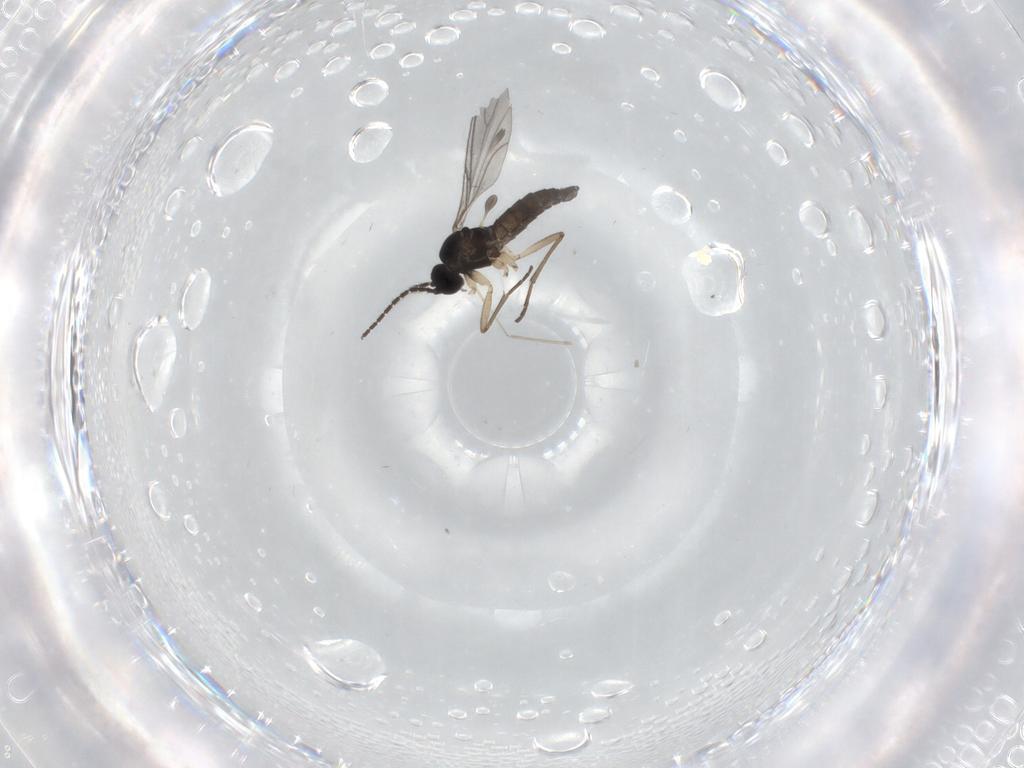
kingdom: Animalia
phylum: Arthropoda
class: Insecta
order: Diptera
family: Sciaridae
